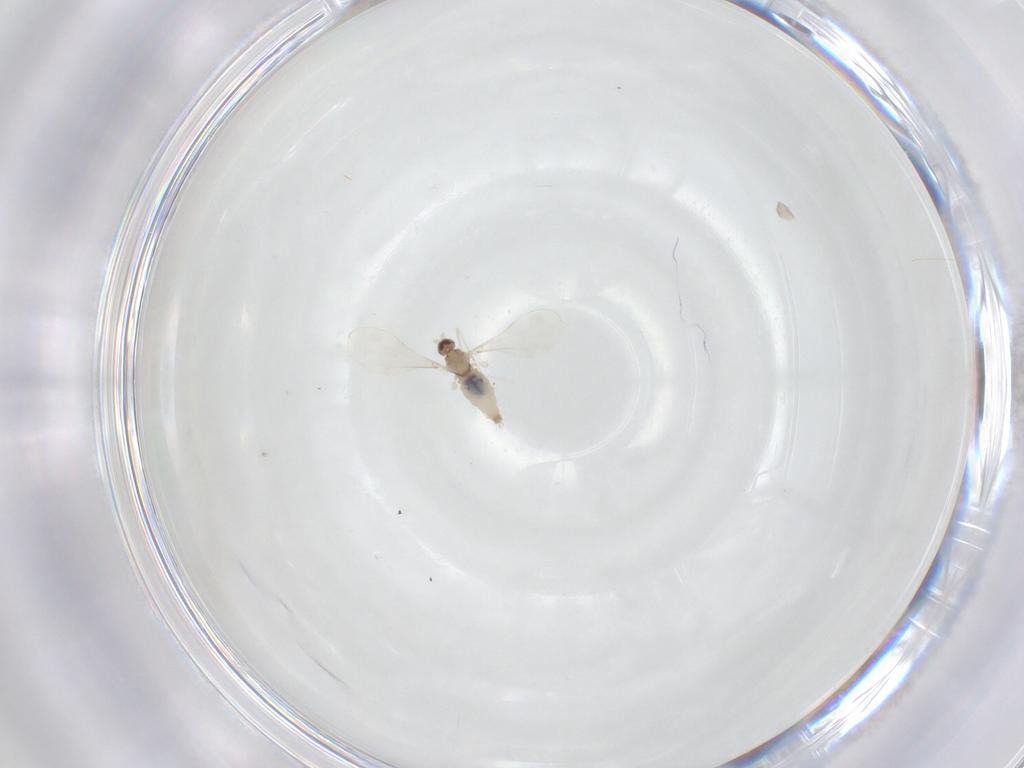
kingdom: Animalia
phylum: Arthropoda
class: Insecta
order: Diptera
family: Cecidomyiidae
